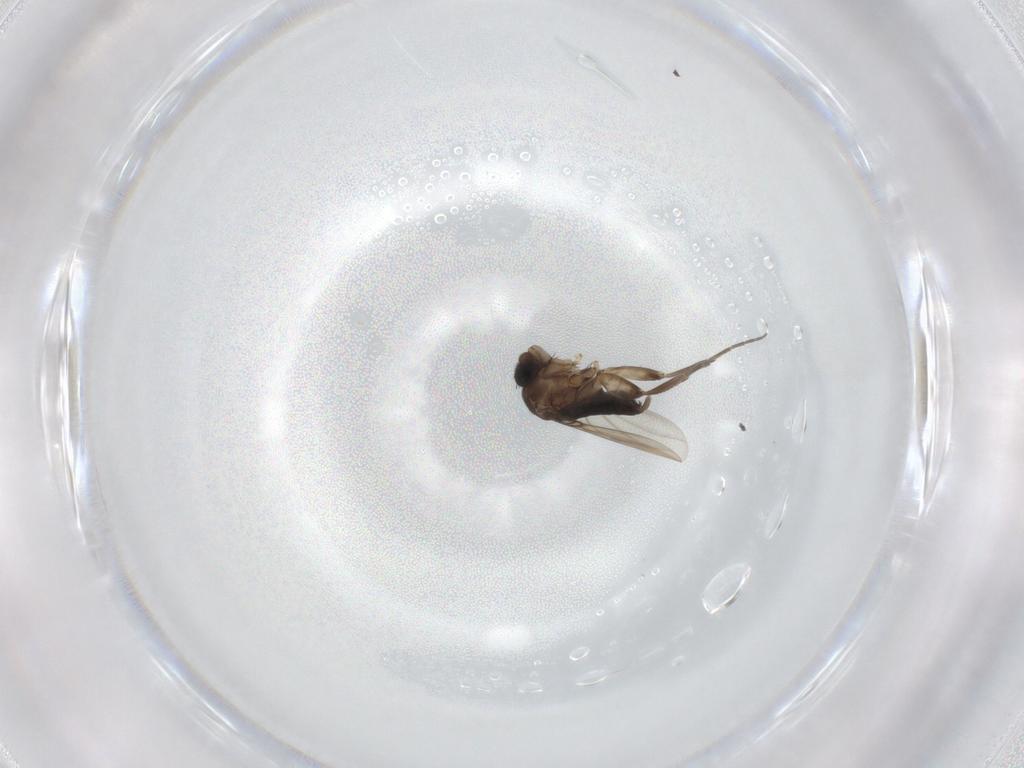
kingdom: Animalia
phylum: Arthropoda
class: Insecta
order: Diptera
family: Phoridae
